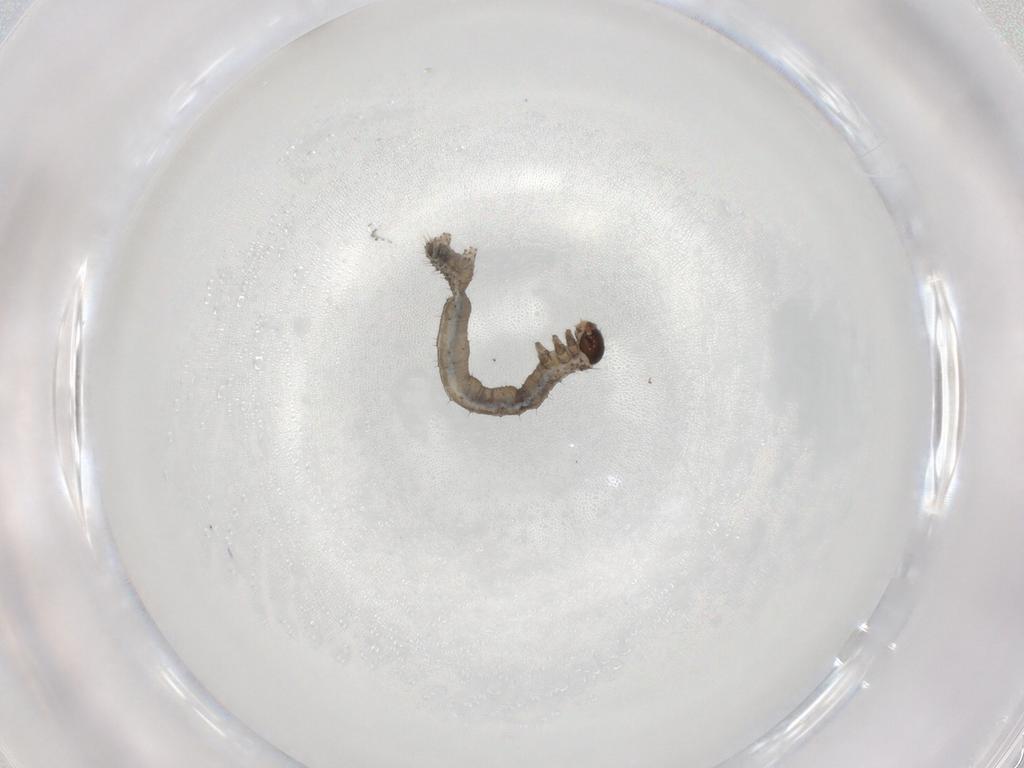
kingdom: Animalia
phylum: Arthropoda
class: Insecta
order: Lepidoptera
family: Geometridae
